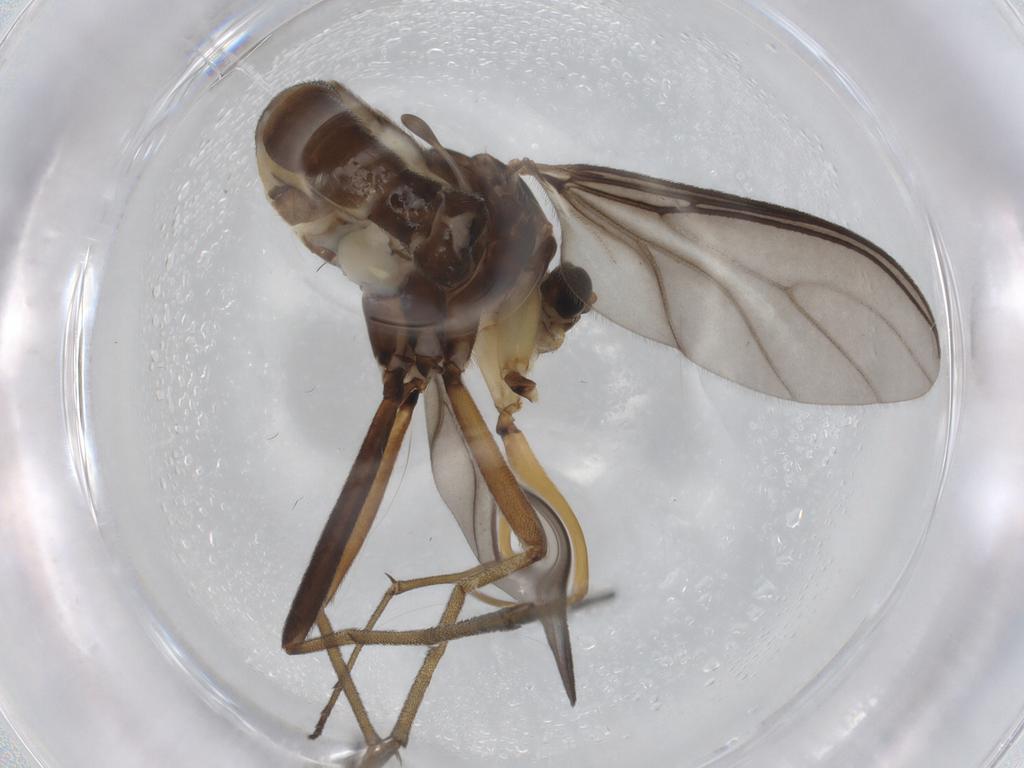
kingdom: Animalia
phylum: Arthropoda
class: Insecta
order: Diptera
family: Sciaridae
